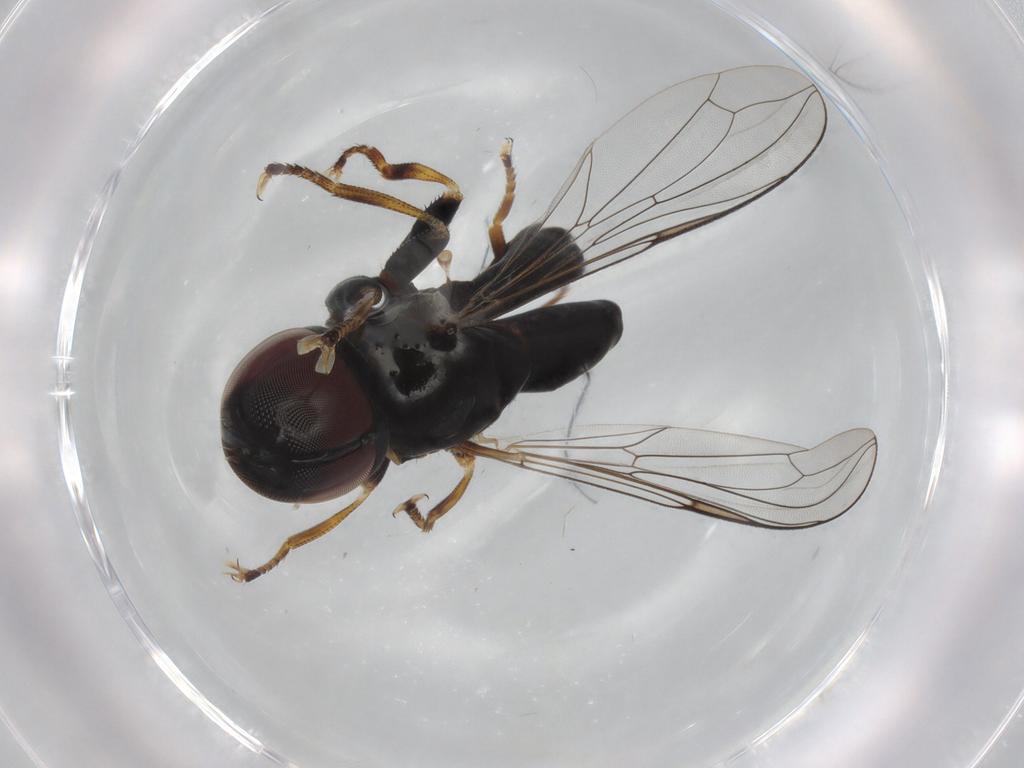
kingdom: Animalia
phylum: Arthropoda
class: Insecta
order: Diptera
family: Pipunculidae
